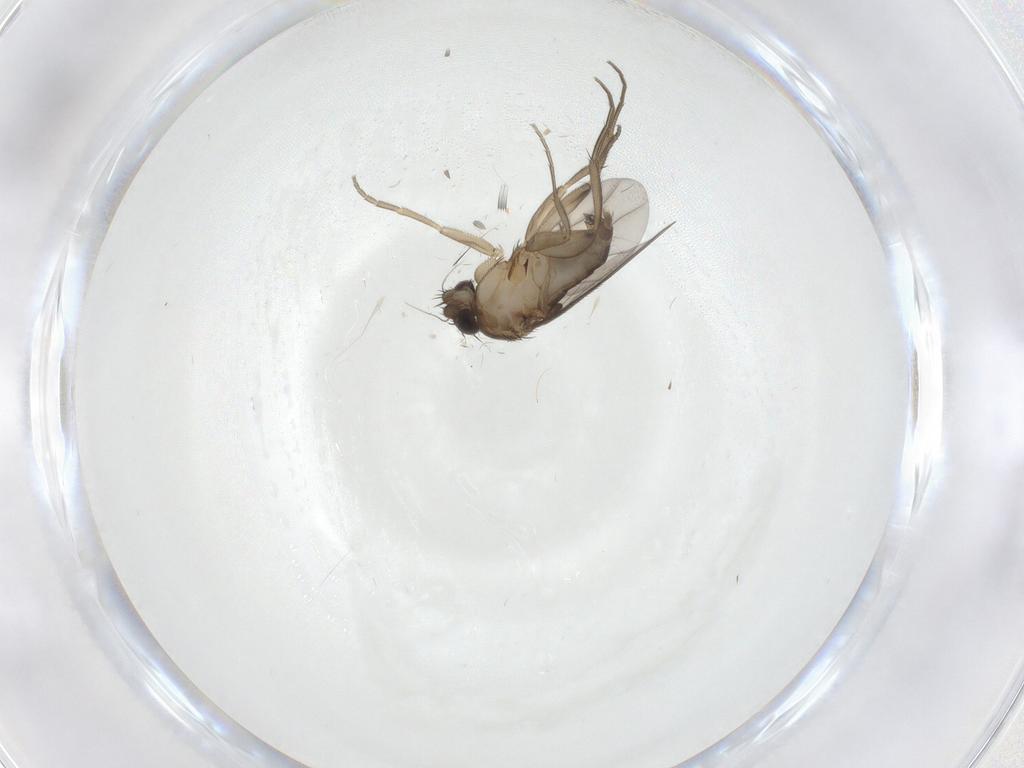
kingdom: Animalia
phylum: Arthropoda
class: Insecta
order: Diptera
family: Phoridae
